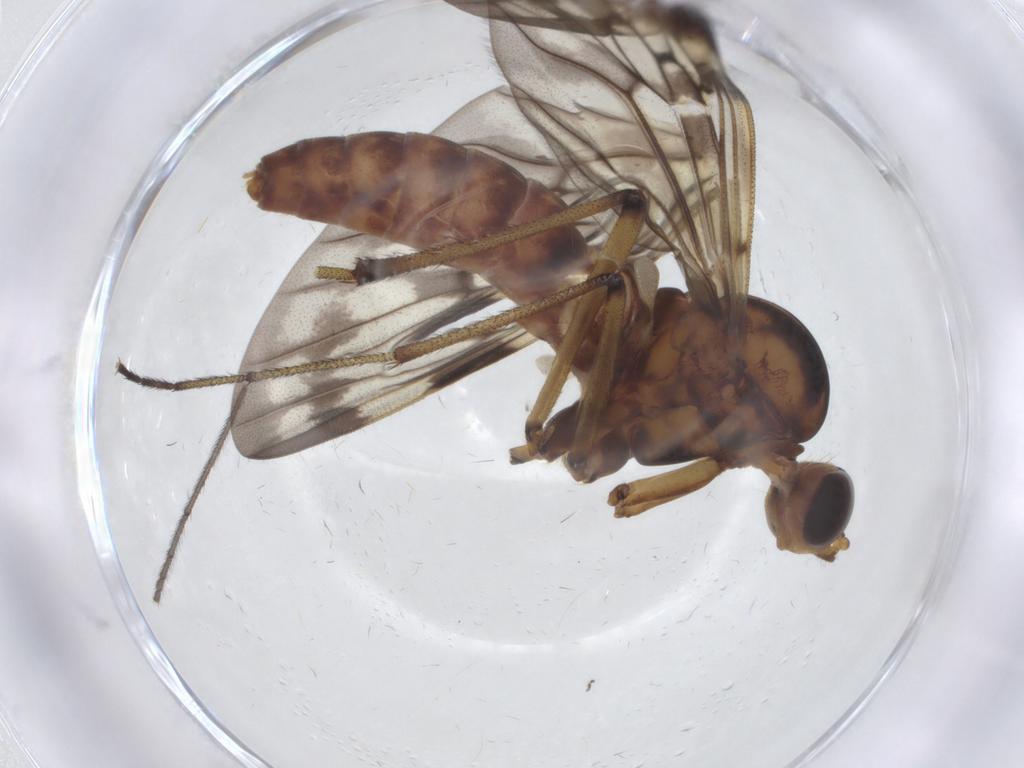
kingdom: Animalia
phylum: Arthropoda
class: Insecta
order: Diptera
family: Anisopodidae
